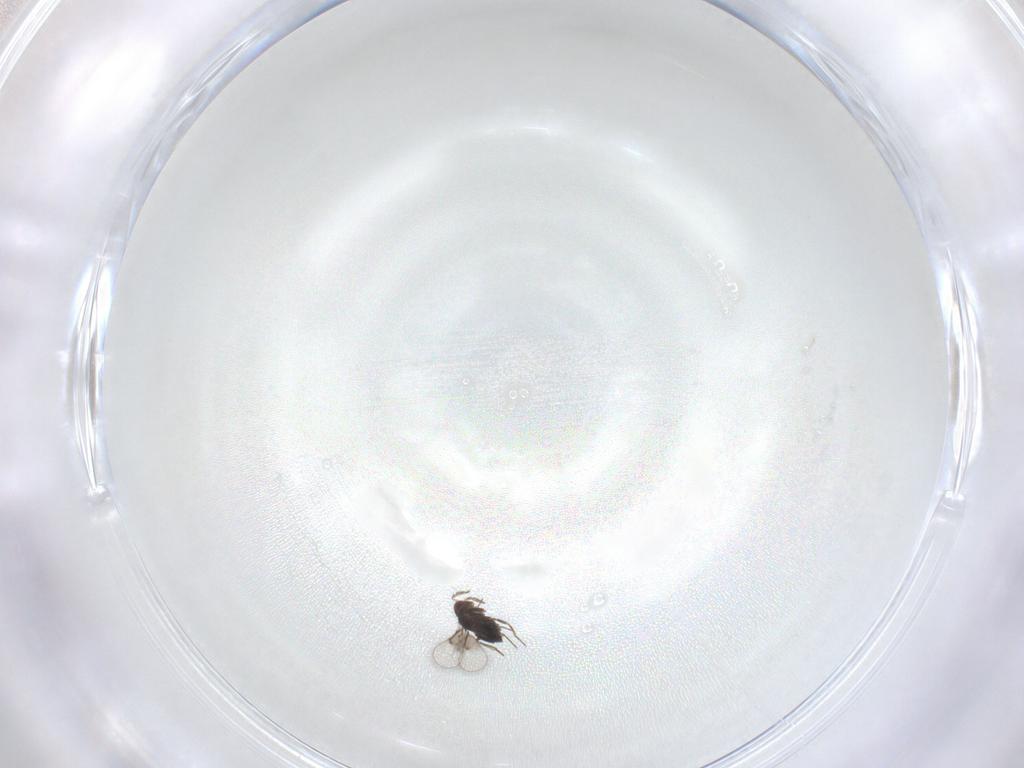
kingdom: Animalia
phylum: Arthropoda
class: Insecta
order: Hymenoptera
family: Trichogrammatidae
